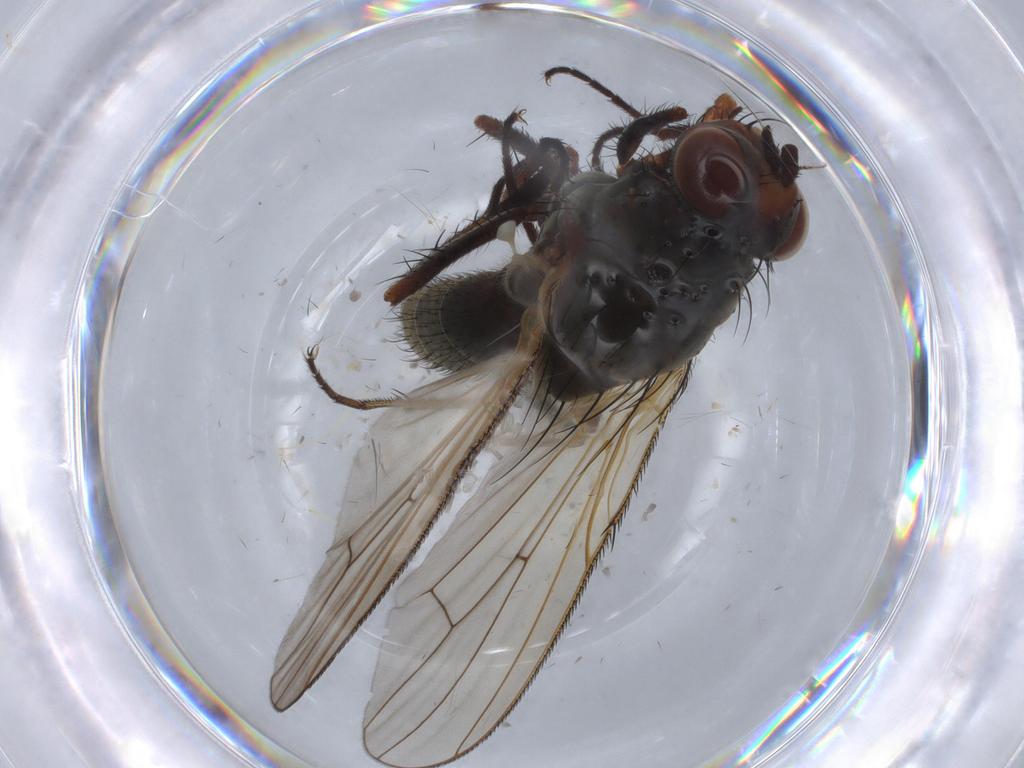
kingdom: Animalia
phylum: Arthropoda
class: Insecta
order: Diptera
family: Anthomyiidae
